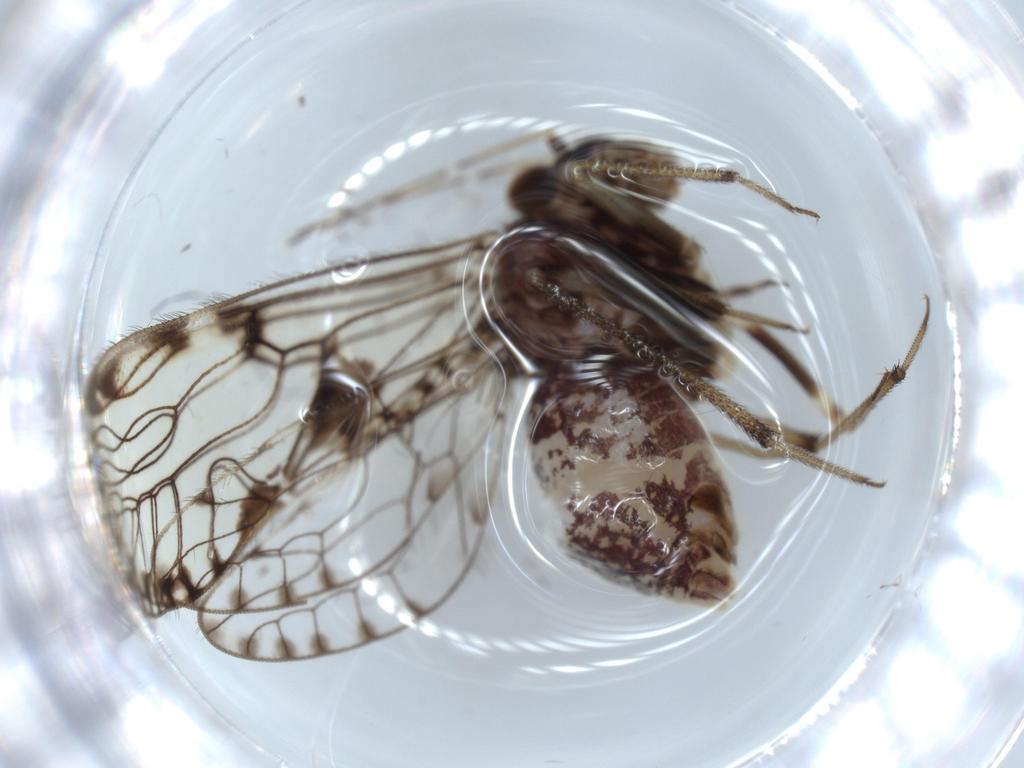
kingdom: Animalia
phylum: Arthropoda
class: Insecta
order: Psocodea
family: Ptiloneuridae
